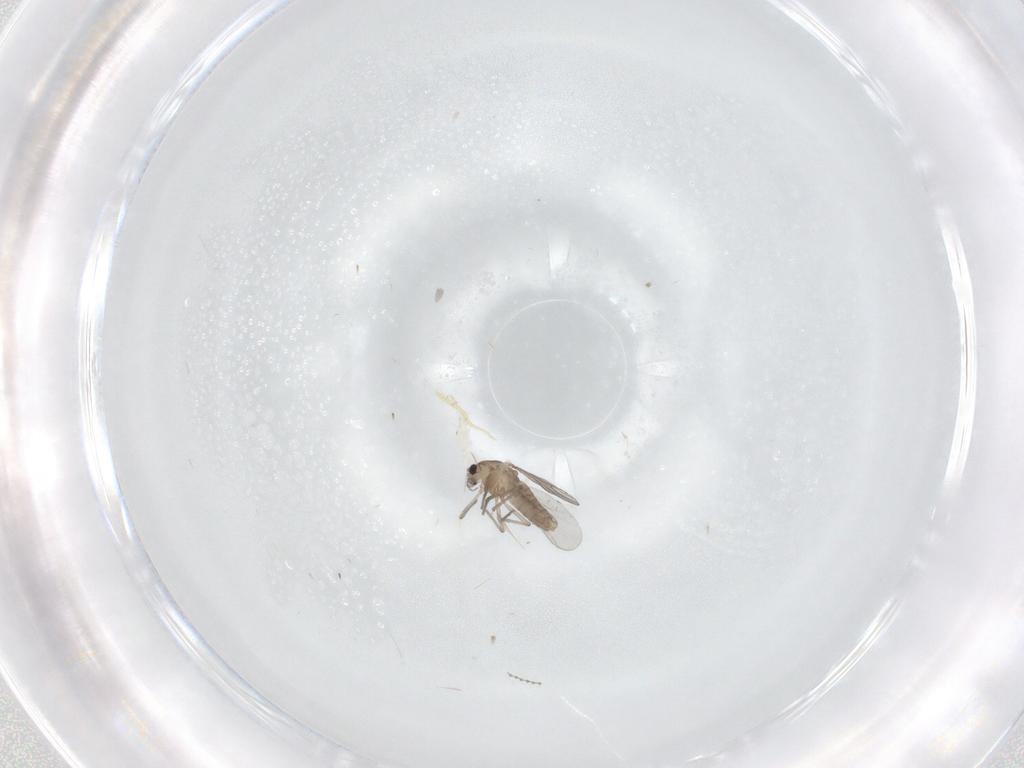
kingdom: Animalia
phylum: Arthropoda
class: Insecta
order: Diptera
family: Chironomidae
